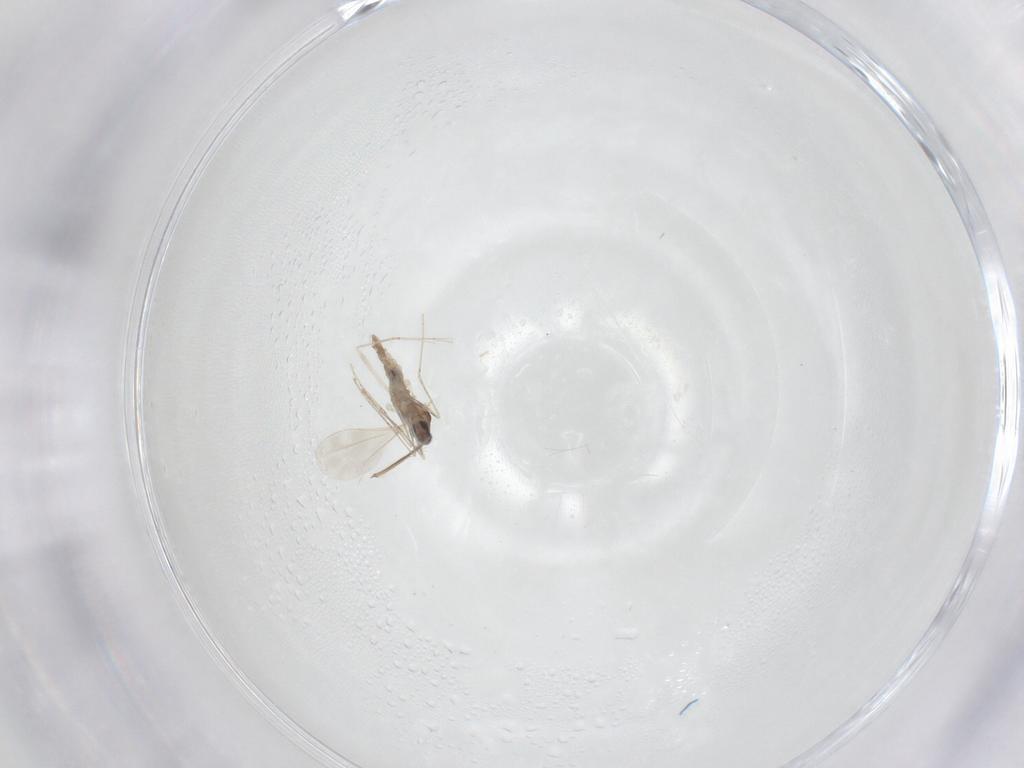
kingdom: Animalia
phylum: Arthropoda
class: Insecta
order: Diptera
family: Cecidomyiidae
